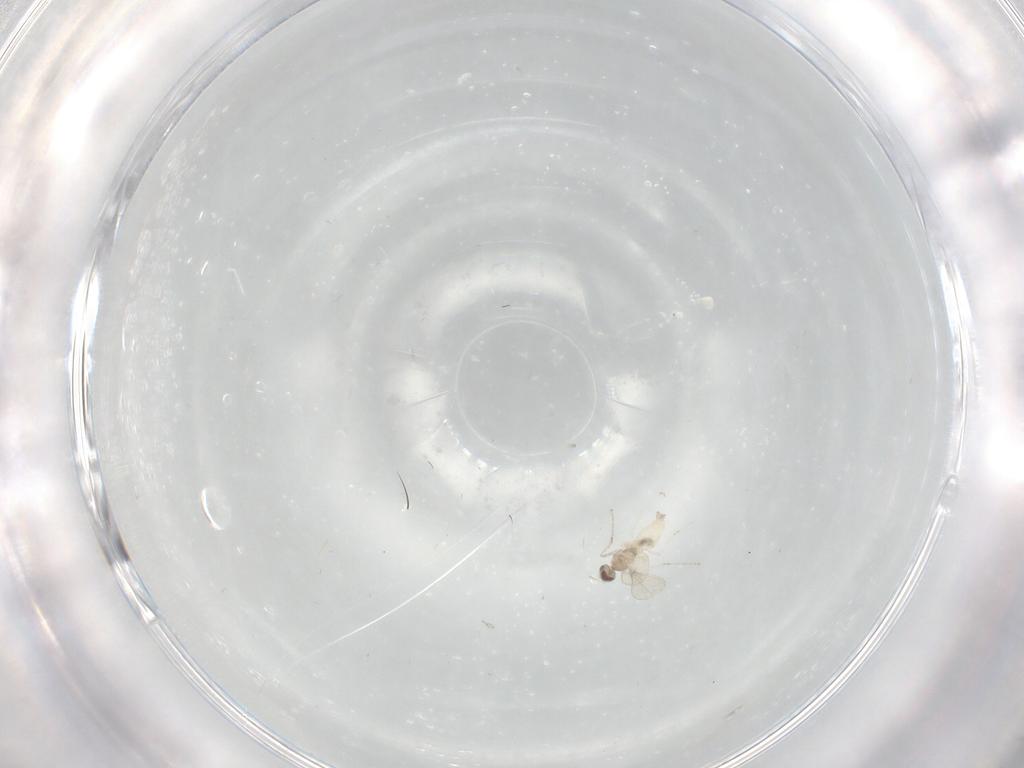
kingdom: Animalia
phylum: Arthropoda
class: Insecta
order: Diptera
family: Cecidomyiidae
